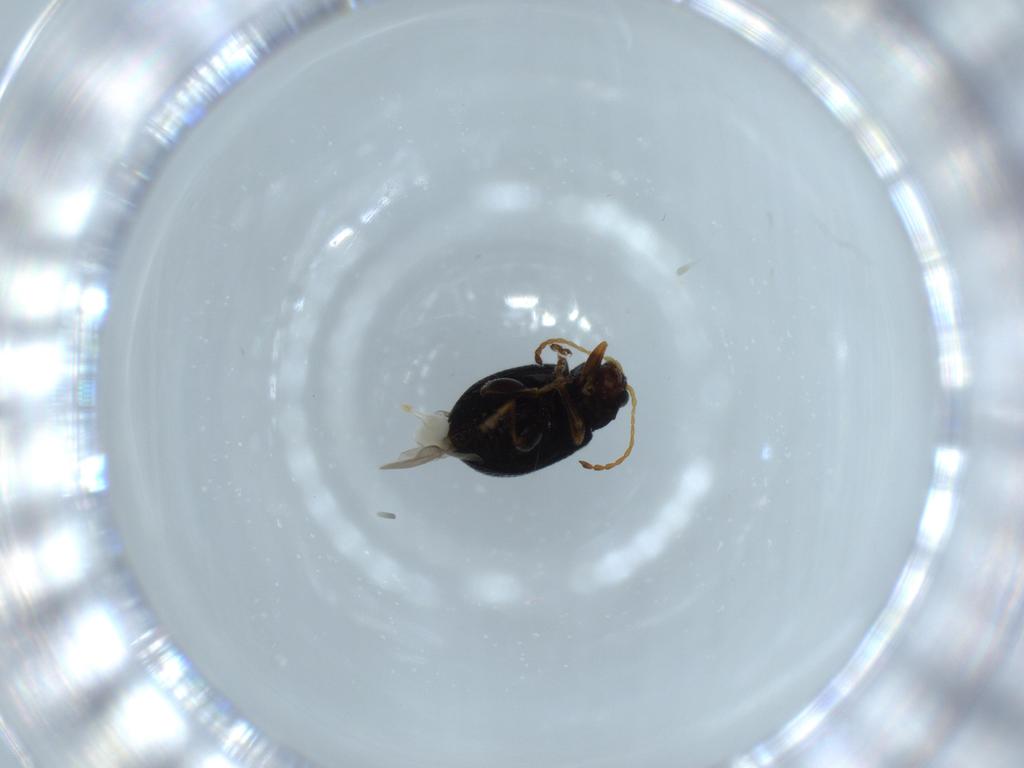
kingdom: Animalia
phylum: Arthropoda
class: Insecta
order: Coleoptera
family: Chrysomelidae
